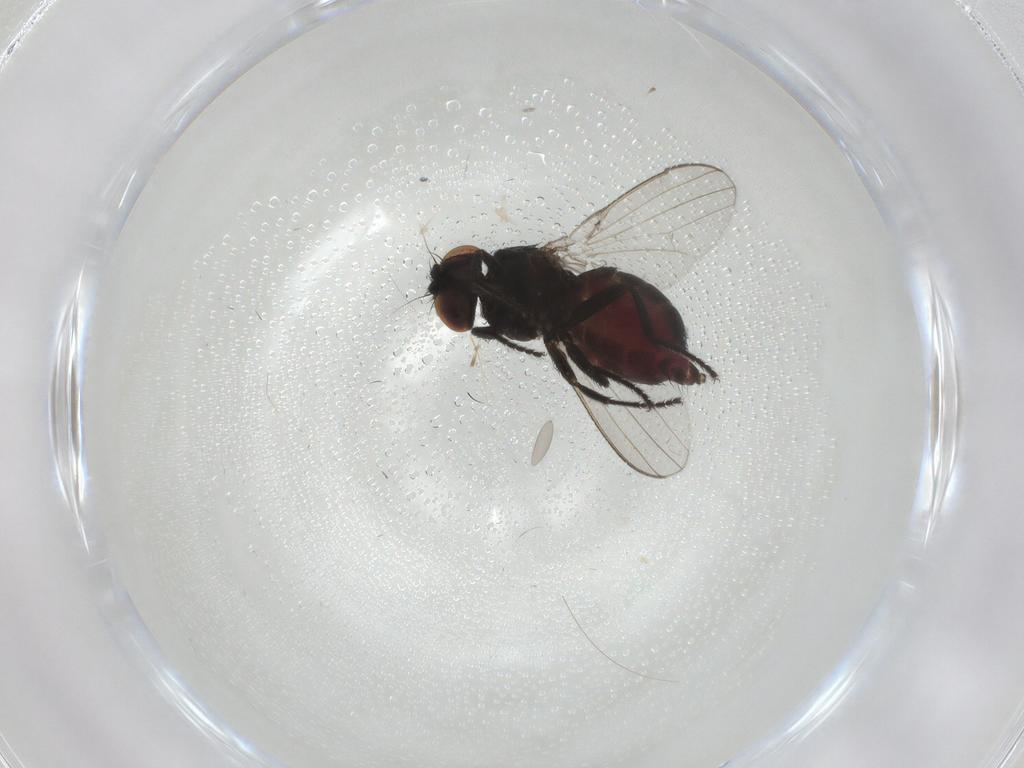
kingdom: Animalia
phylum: Arthropoda
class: Insecta
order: Diptera
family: Milichiidae
